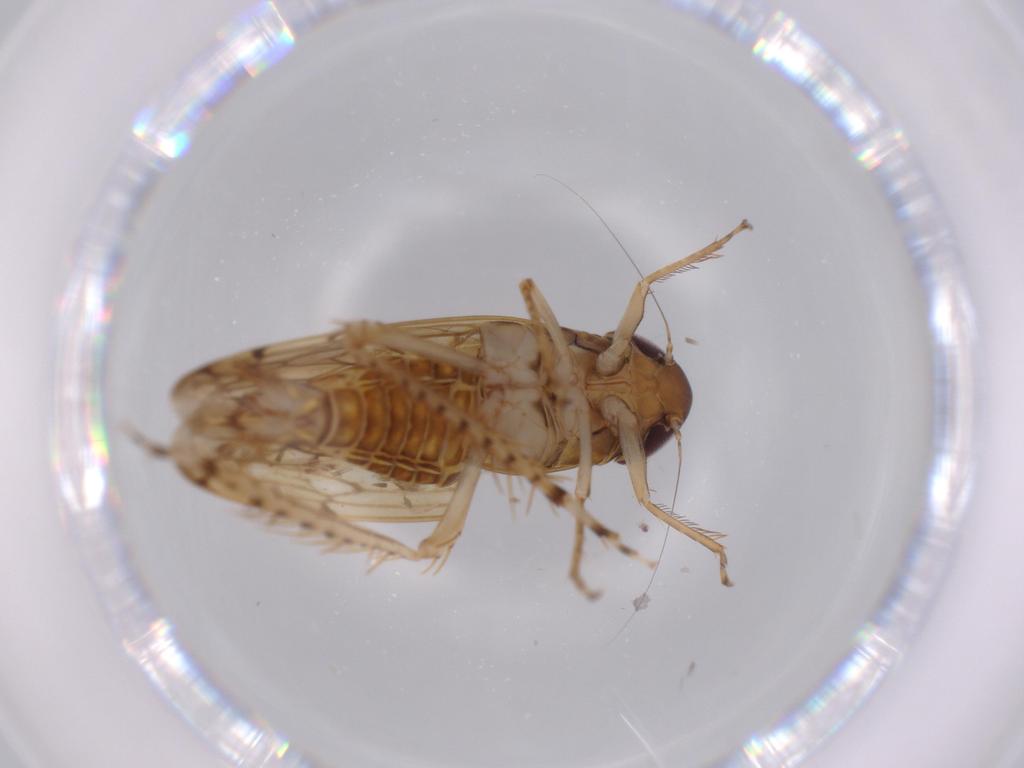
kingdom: Animalia
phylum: Arthropoda
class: Insecta
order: Hemiptera
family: Cicadellidae
